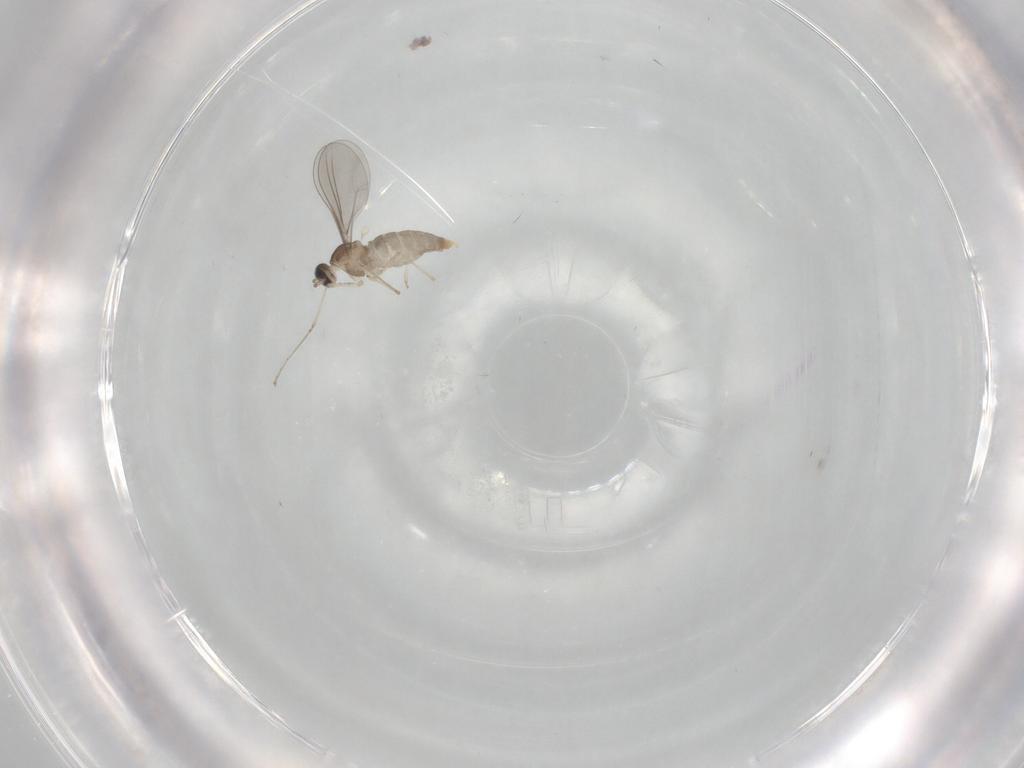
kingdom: Animalia
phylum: Arthropoda
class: Insecta
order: Diptera
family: Cecidomyiidae
